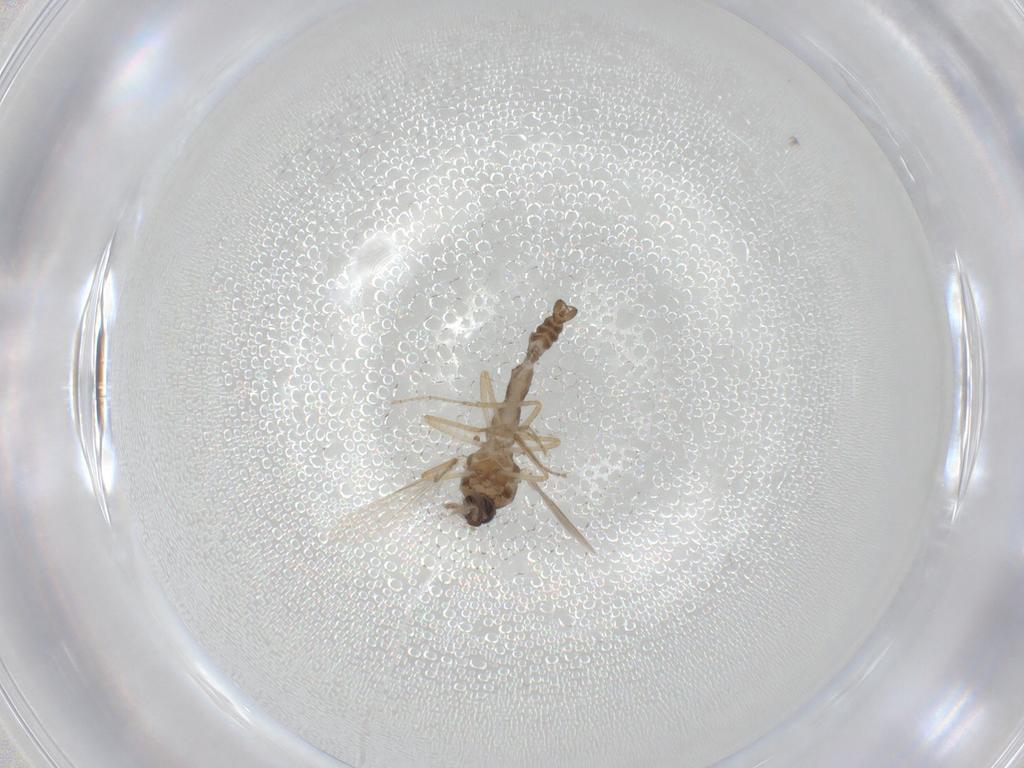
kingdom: Animalia
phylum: Arthropoda
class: Insecta
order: Diptera
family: Ceratopogonidae
